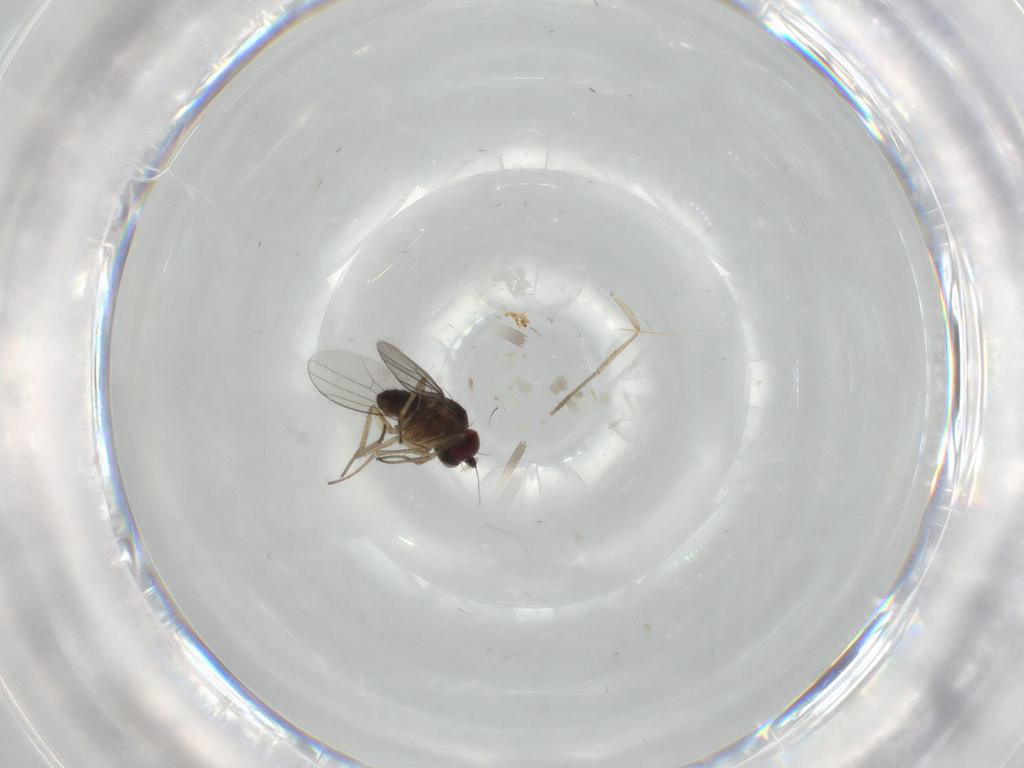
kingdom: Animalia
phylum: Arthropoda
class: Insecta
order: Diptera
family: Dolichopodidae
